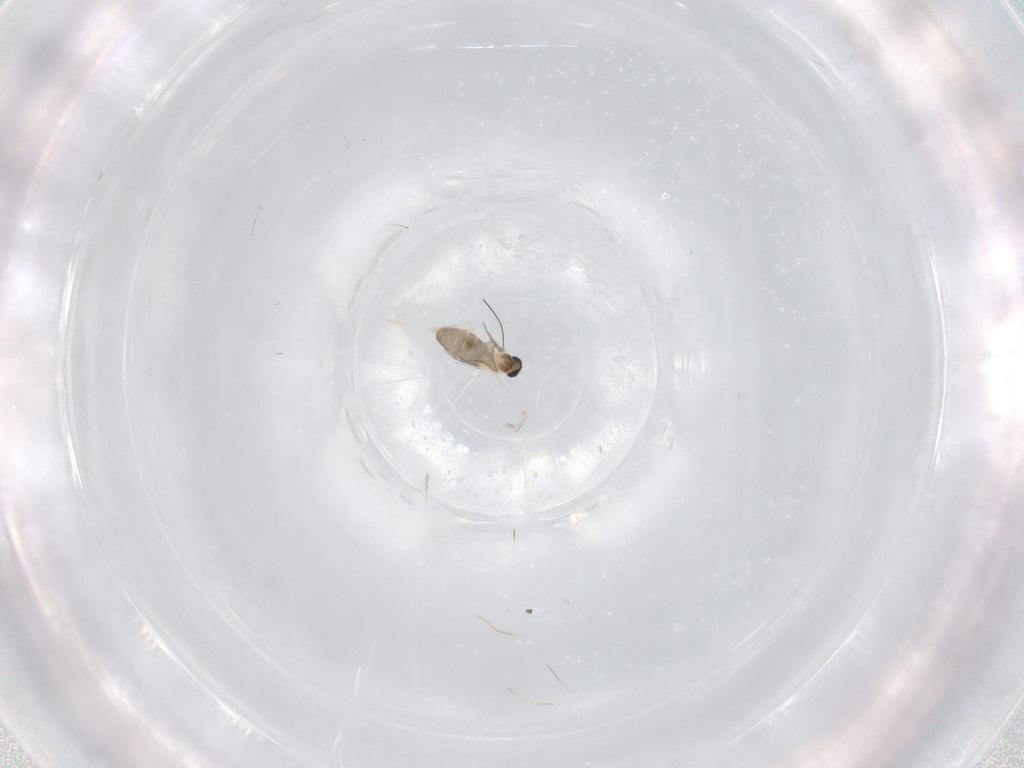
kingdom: Animalia
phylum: Arthropoda
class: Insecta
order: Diptera
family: Cecidomyiidae
